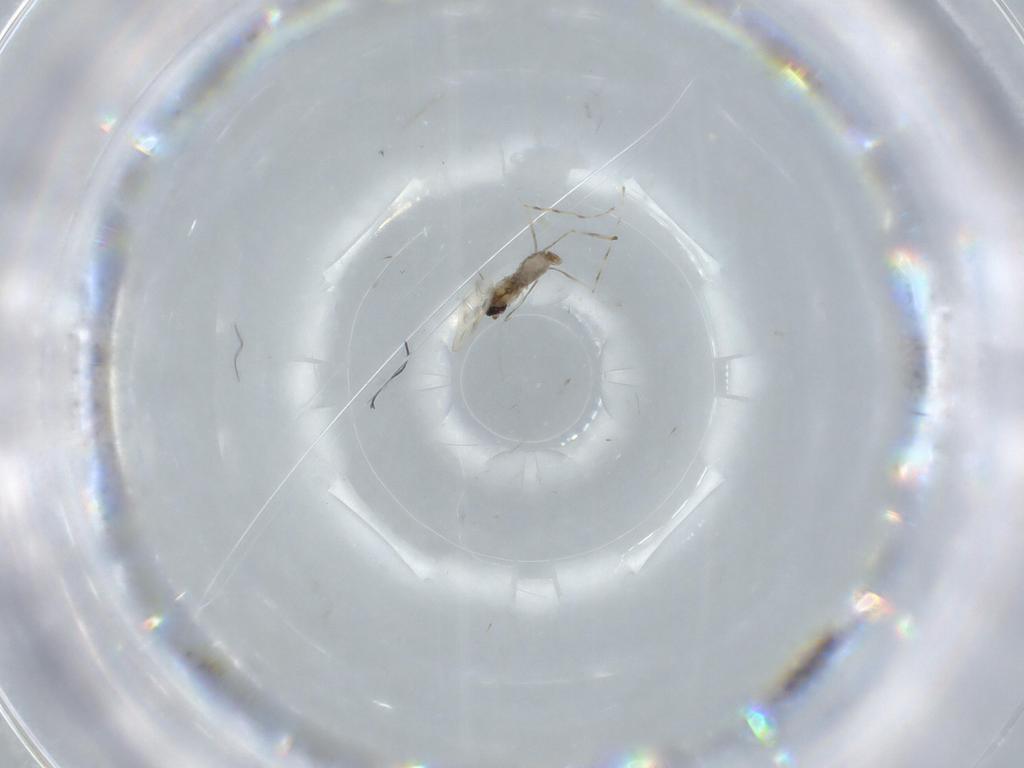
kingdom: Animalia
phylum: Arthropoda
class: Insecta
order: Diptera
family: Cecidomyiidae
